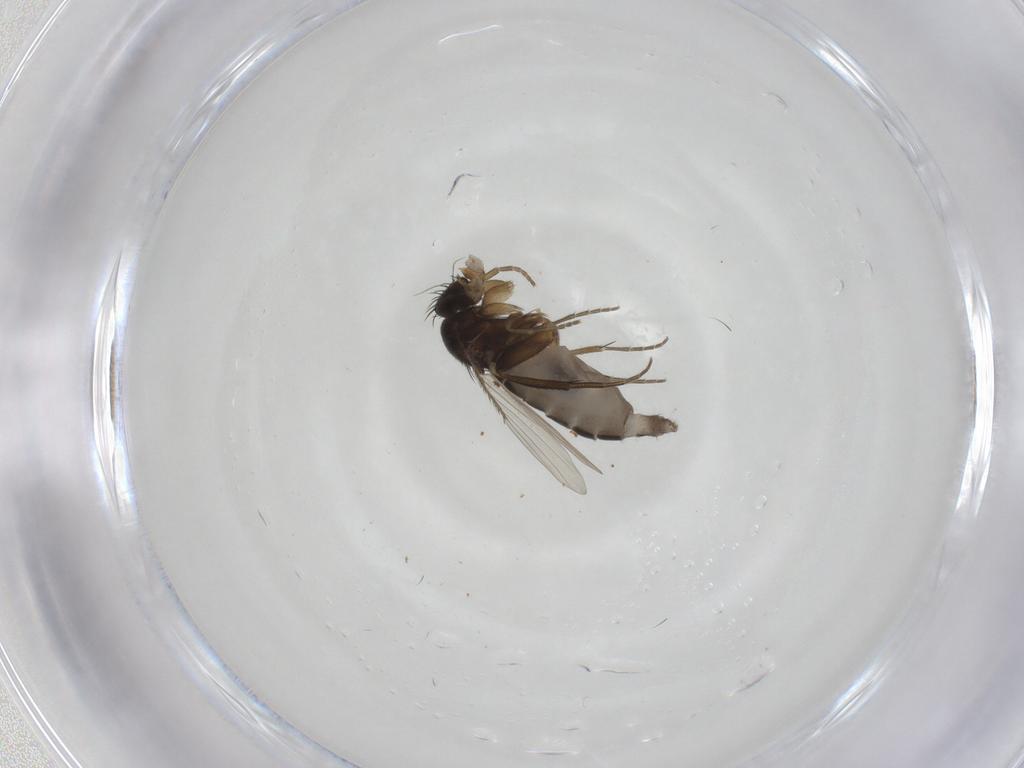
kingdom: Animalia
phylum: Arthropoda
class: Insecta
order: Diptera
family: Phoridae
